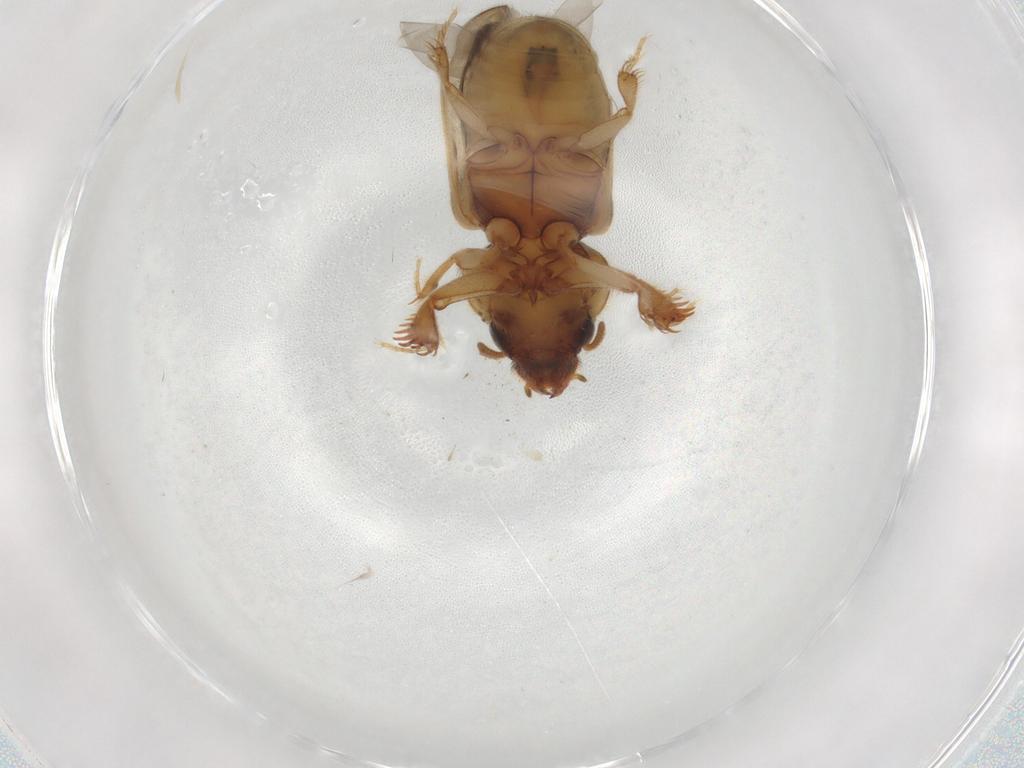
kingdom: Animalia
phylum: Arthropoda
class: Insecta
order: Coleoptera
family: Heteroceridae
